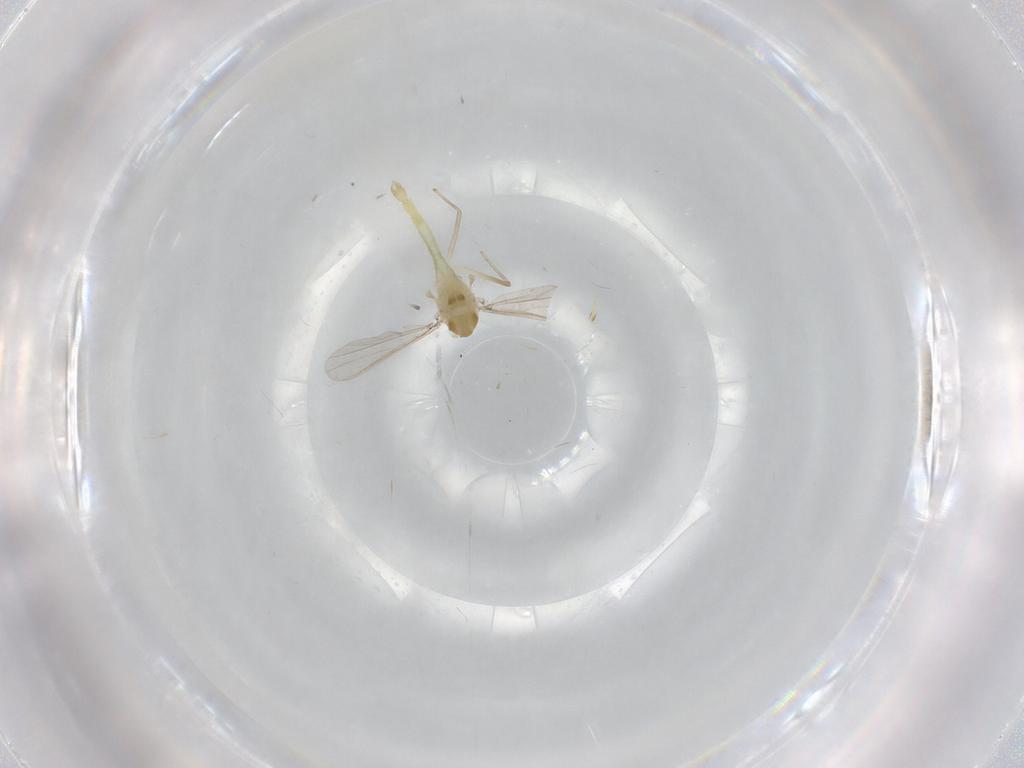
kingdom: Animalia
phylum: Arthropoda
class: Insecta
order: Diptera
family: Chironomidae
